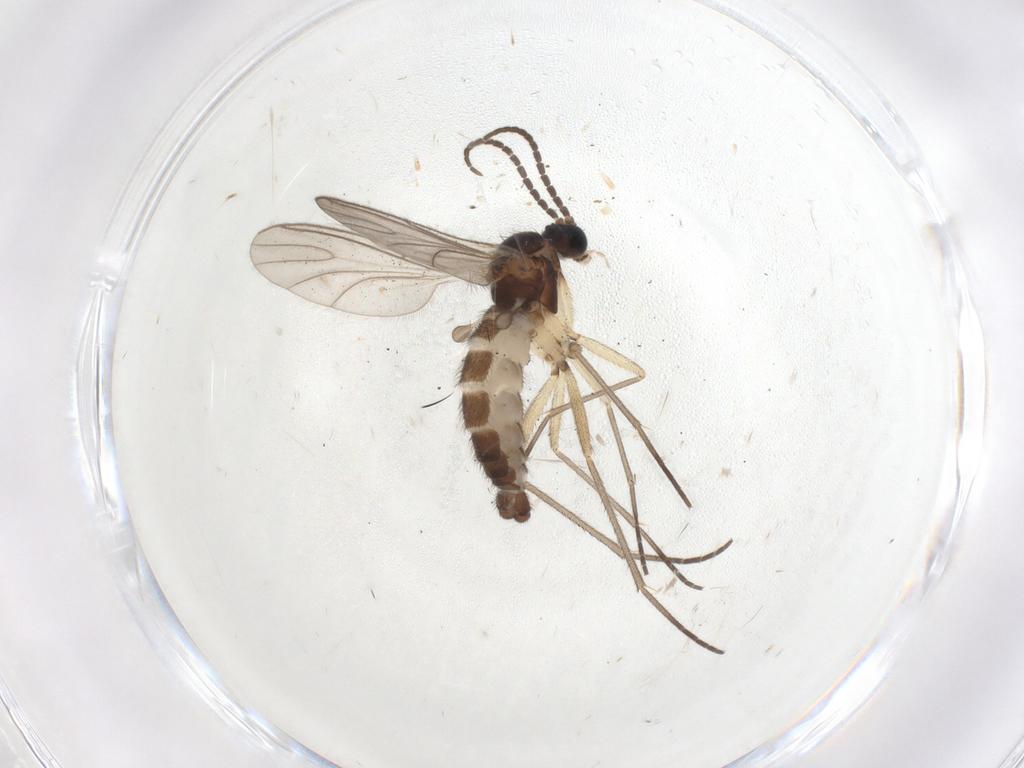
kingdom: Animalia
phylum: Arthropoda
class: Insecta
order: Diptera
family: Sciaridae
